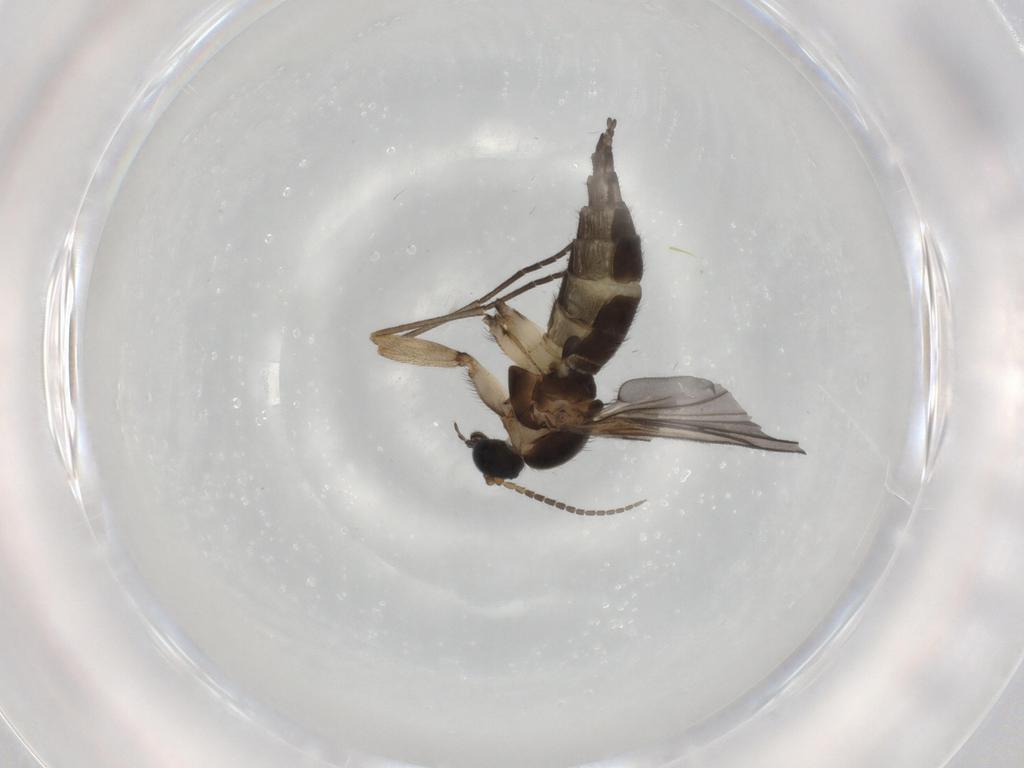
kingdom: Animalia
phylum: Arthropoda
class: Insecta
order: Diptera
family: Sciaridae
